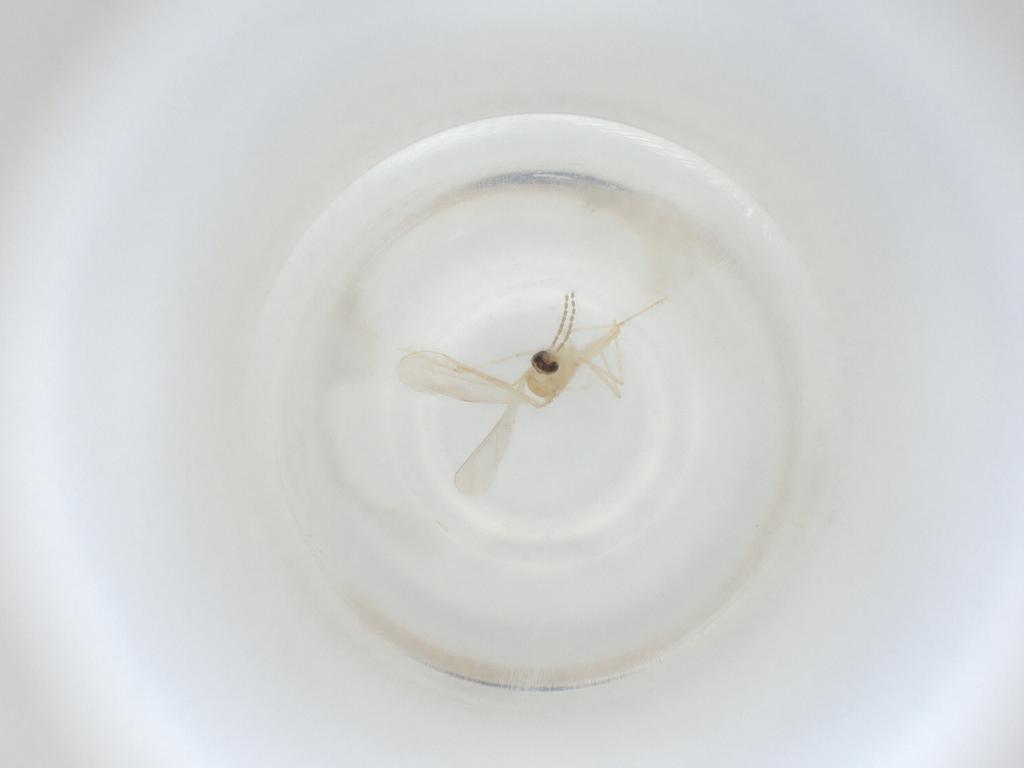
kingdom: Animalia
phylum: Arthropoda
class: Insecta
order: Diptera
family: Cecidomyiidae
